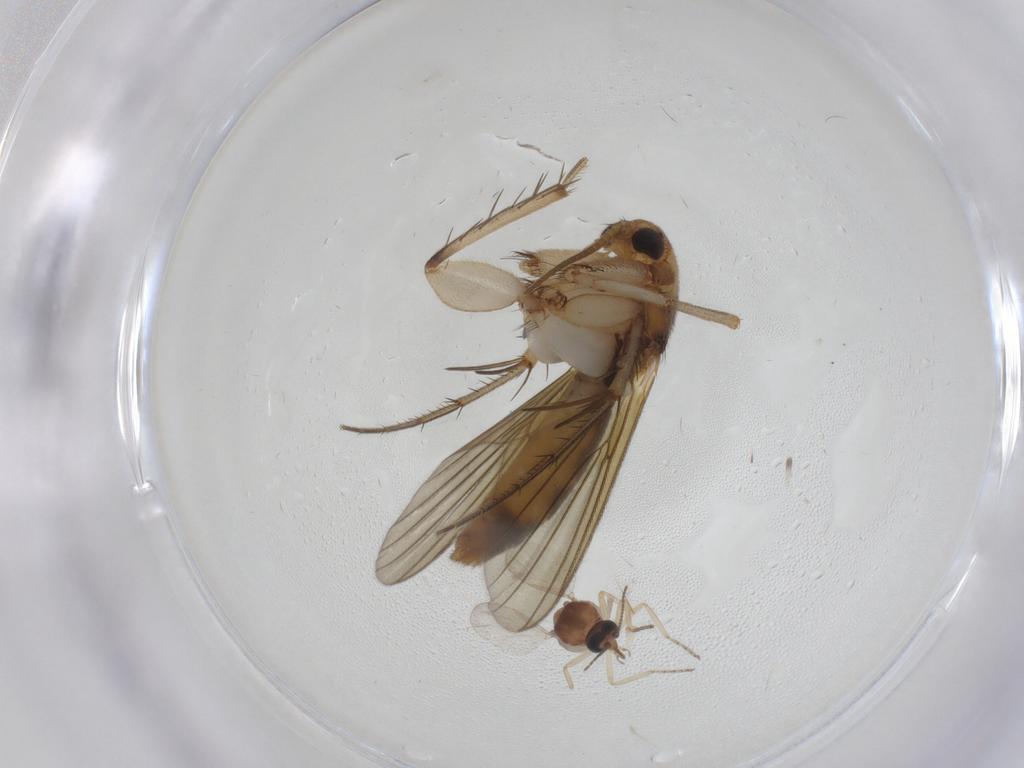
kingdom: Animalia
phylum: Arthropoda
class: Insecta
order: Diptera
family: Ceratopogonidae
